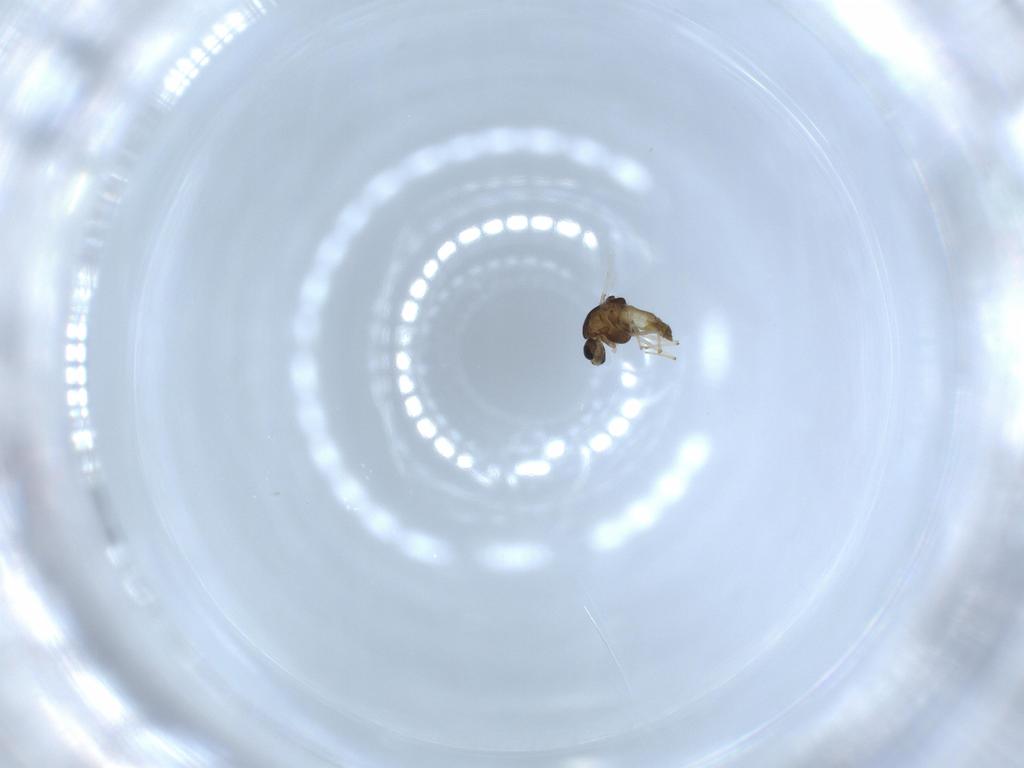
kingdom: Animalia
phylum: Arthropoda
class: Insecta
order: Diptera
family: Chironomidae
